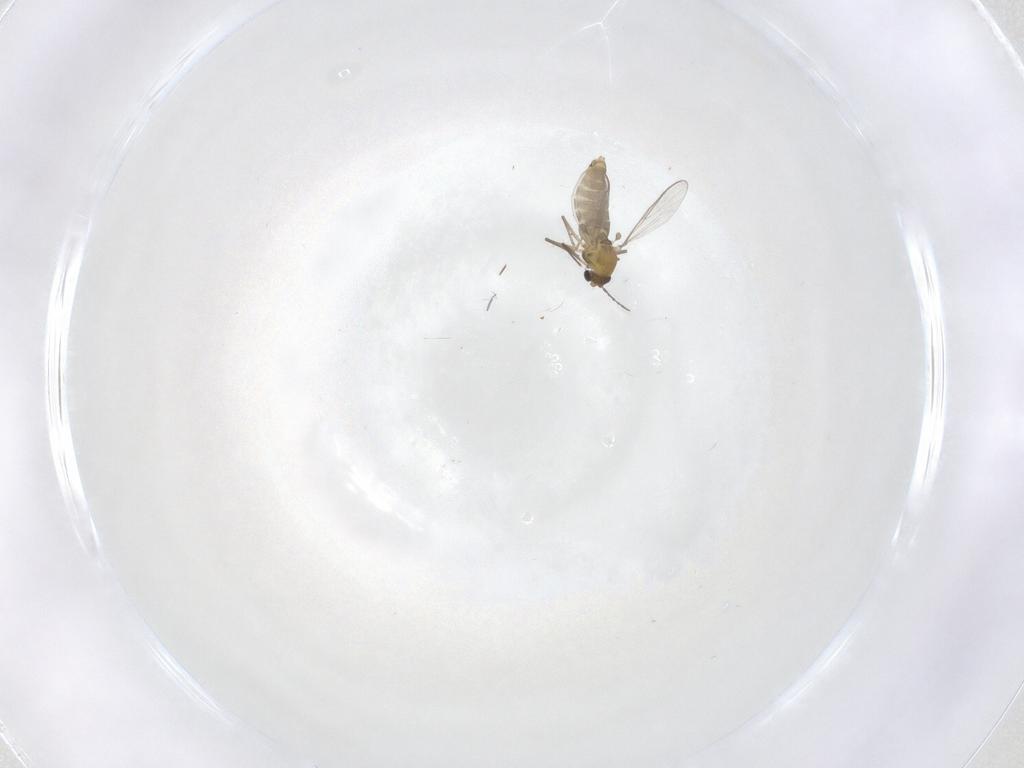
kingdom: Animalia
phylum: Arthropoda
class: Insecta
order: Diptera
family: Chironomidae
